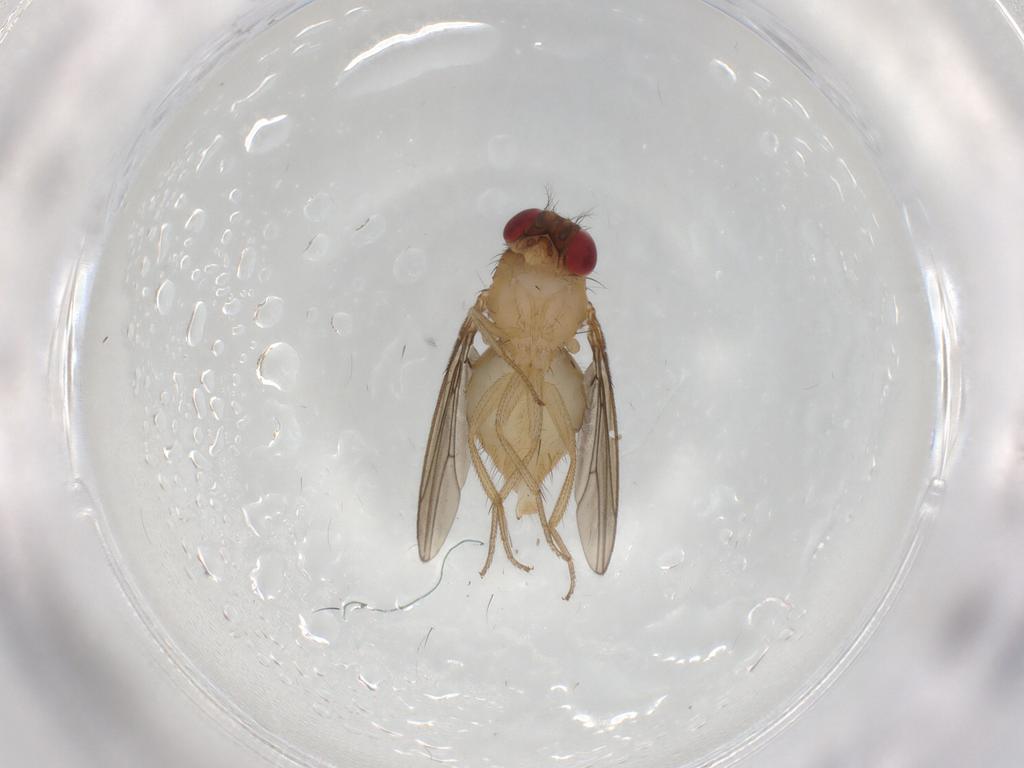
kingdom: Animalia
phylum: Arthropoda
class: Insecta
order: Diptera
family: Drosophilidae
